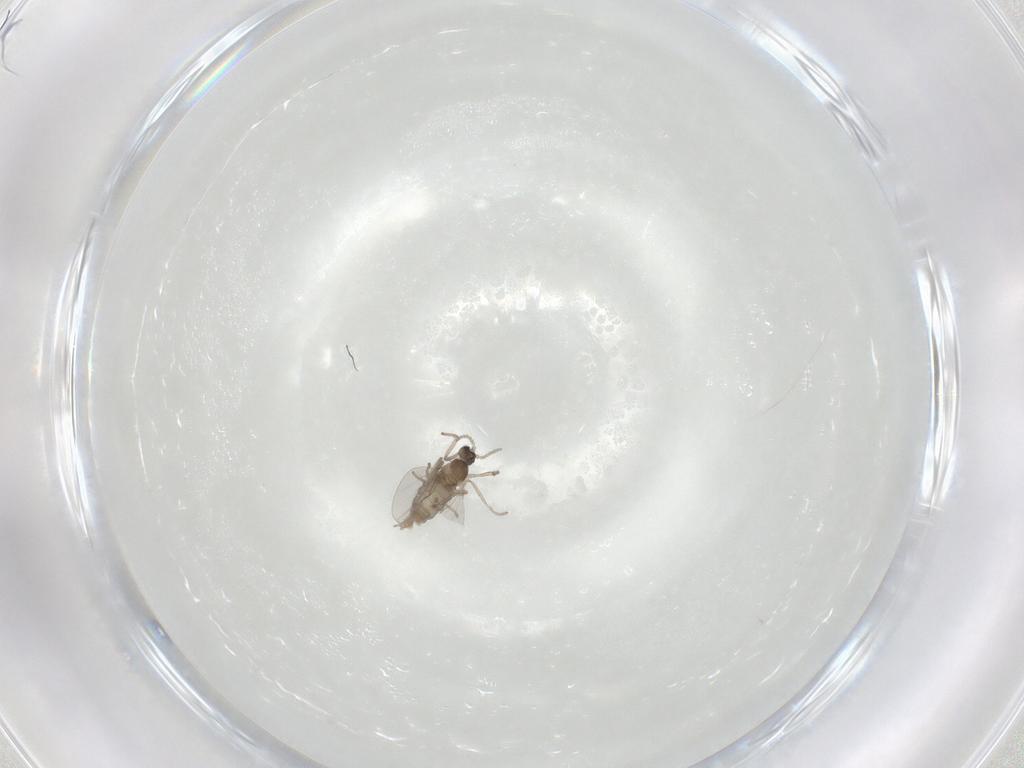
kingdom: Animalia
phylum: Arthropoda
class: Insecta
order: Diptera
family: Cecidomyiidae
